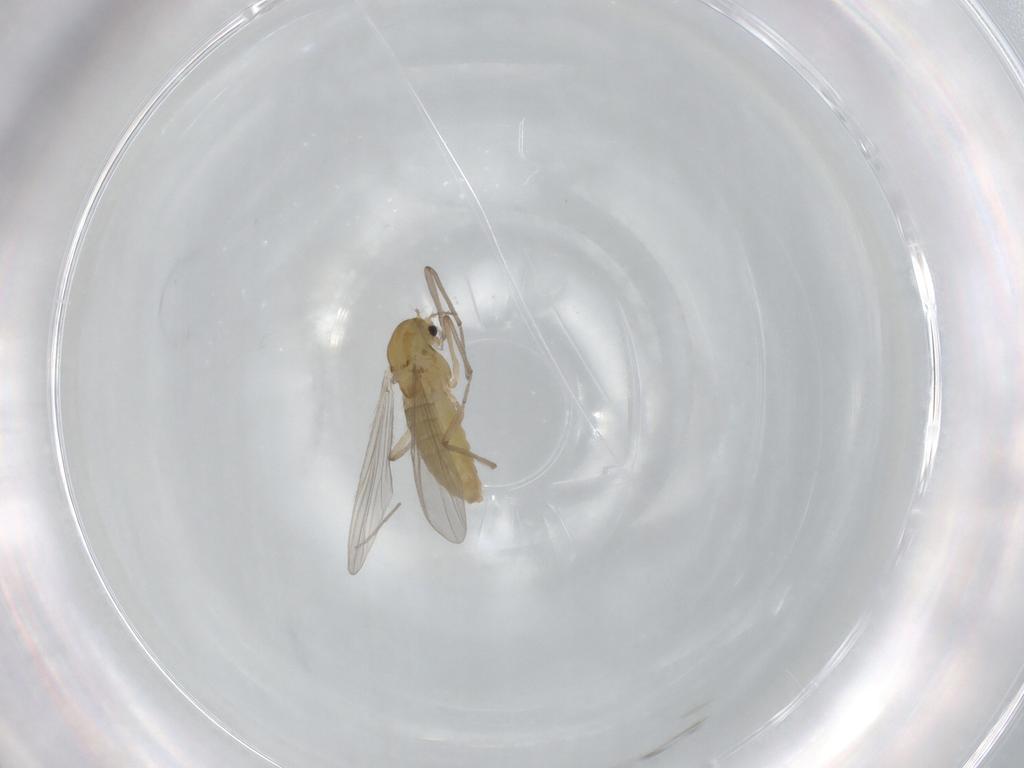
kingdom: Animalia
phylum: Arthropoda
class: Insecta
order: Diptera
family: Chironomidae
